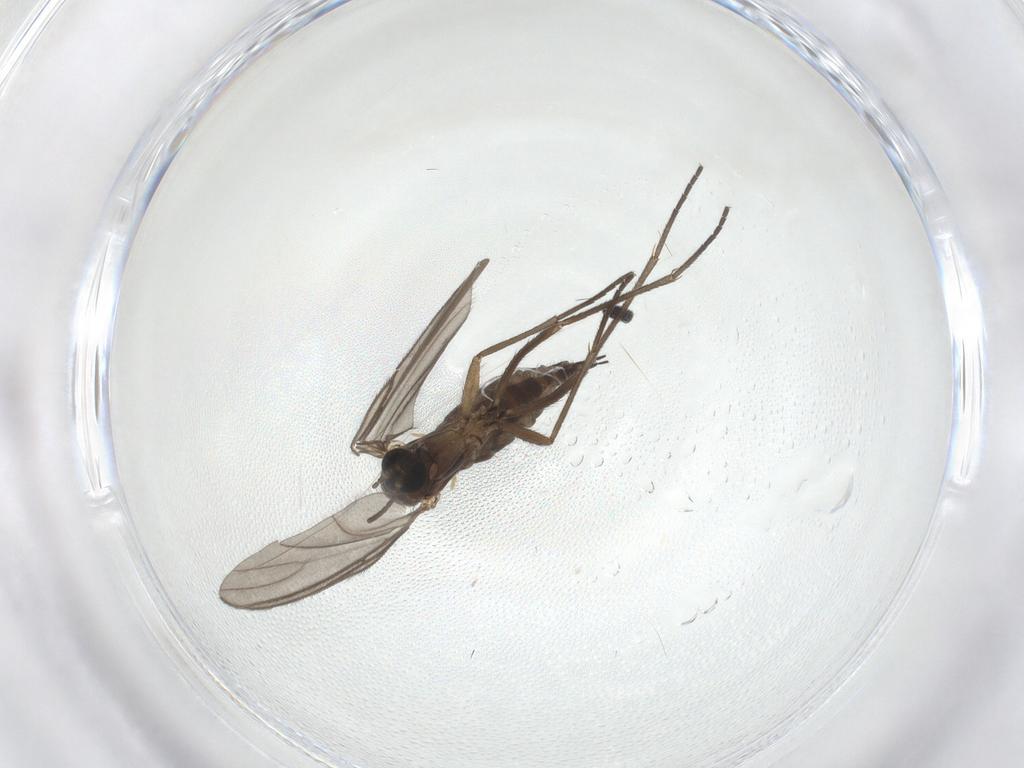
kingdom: Animalia
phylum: Arthropoda
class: Insecta
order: Diptera
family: Sciaridae
